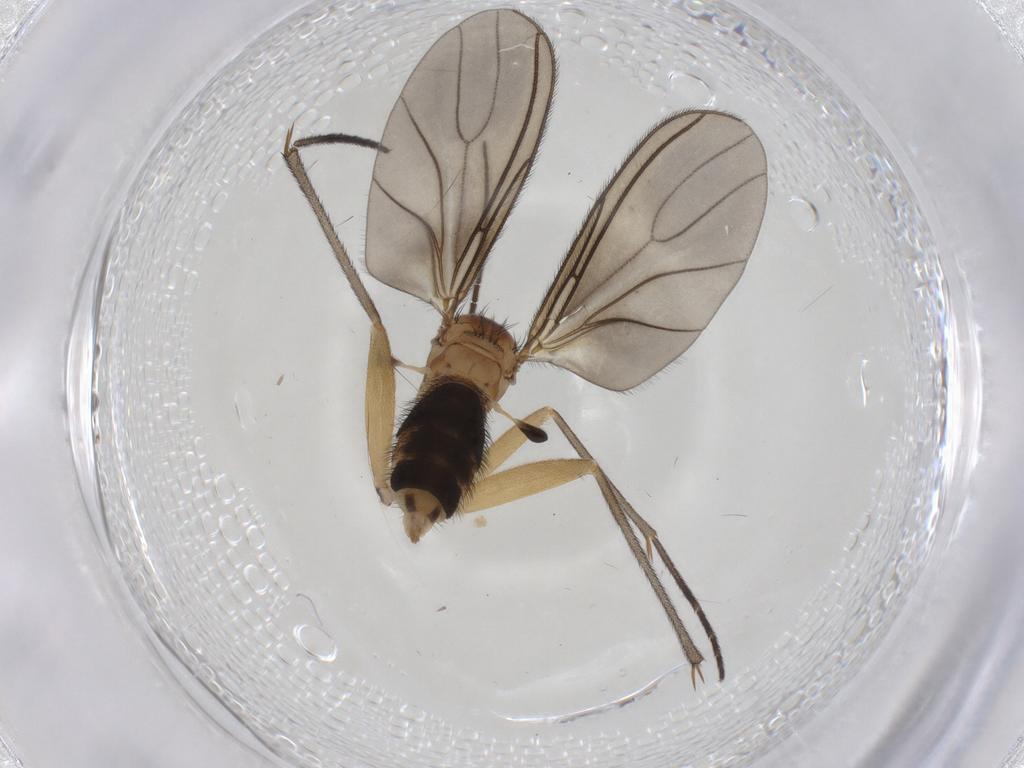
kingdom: Animalia
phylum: Arthropoda
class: Insecta
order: Diptera
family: Sciaridae
